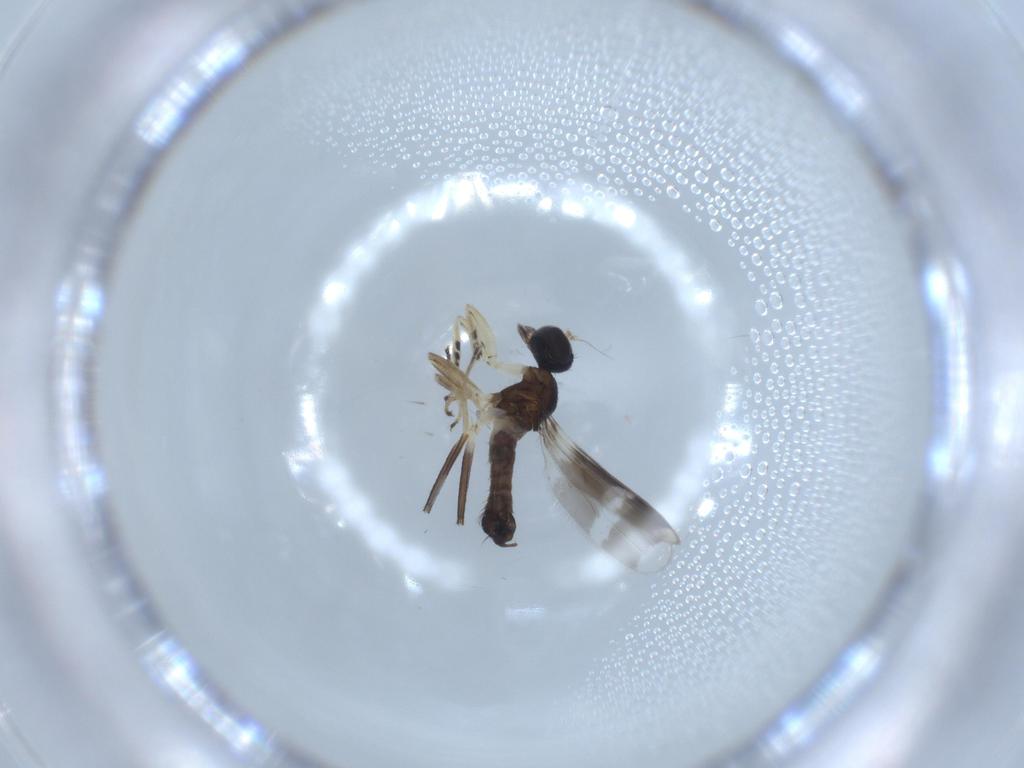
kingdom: Animalia
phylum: Arthropoda
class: Insecta
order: Diptera
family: Hybotidae
